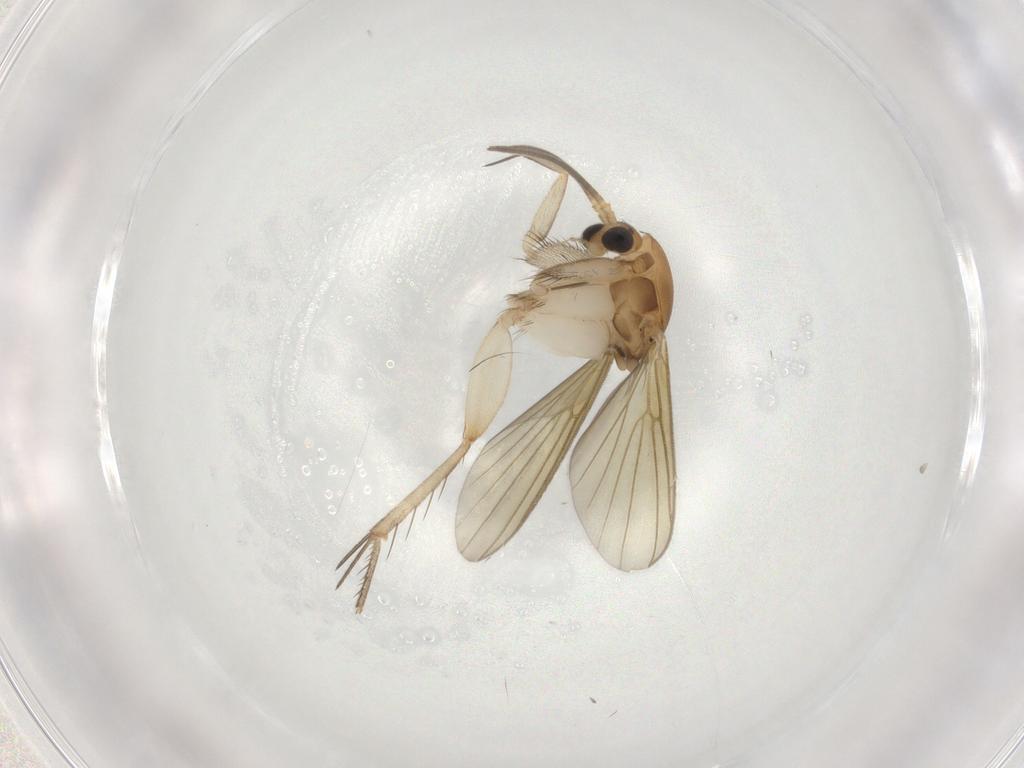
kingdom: Animalia
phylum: Arthropoda
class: Insecta
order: Diptera
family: Mycetophilidae
